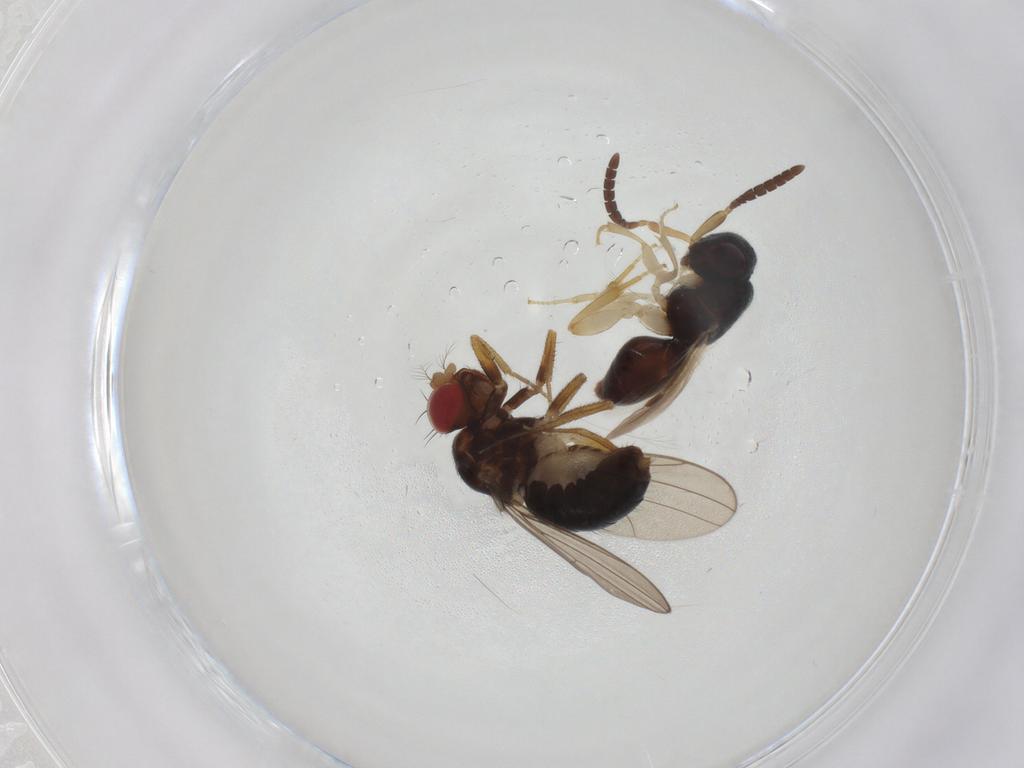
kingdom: Animalia
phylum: Arthropoda
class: Insecta
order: Diptera
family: Drosophilidae
